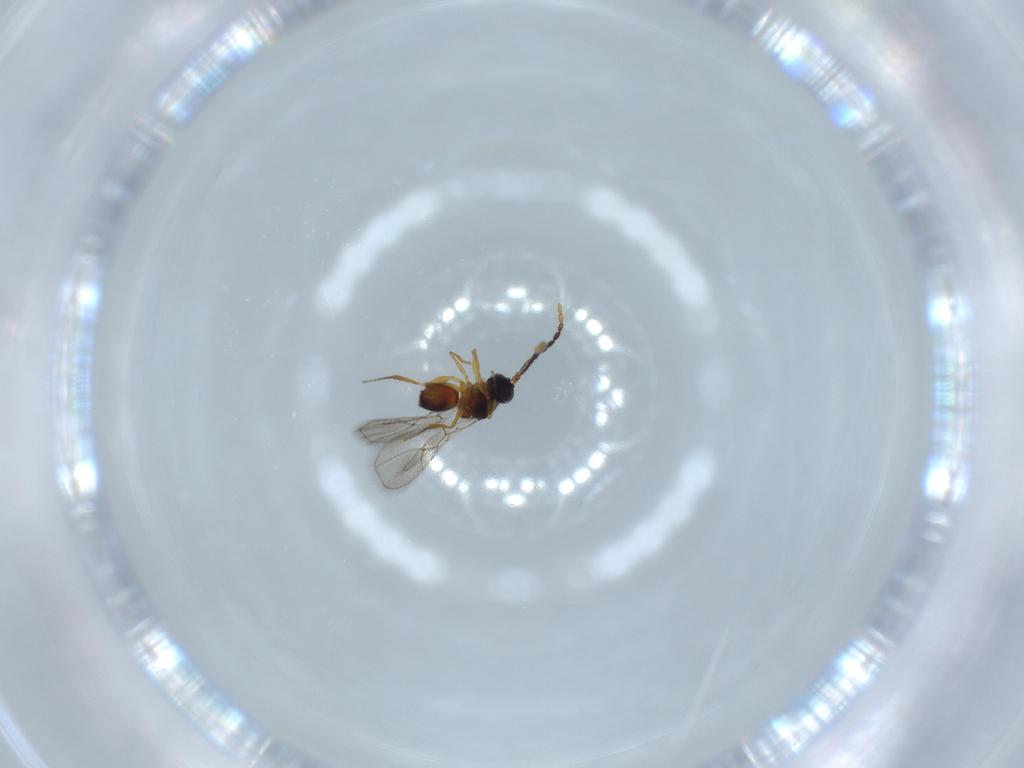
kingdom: Animalia
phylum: Arthropoda
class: Insecta
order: Hymenoptera
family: Figitidae
